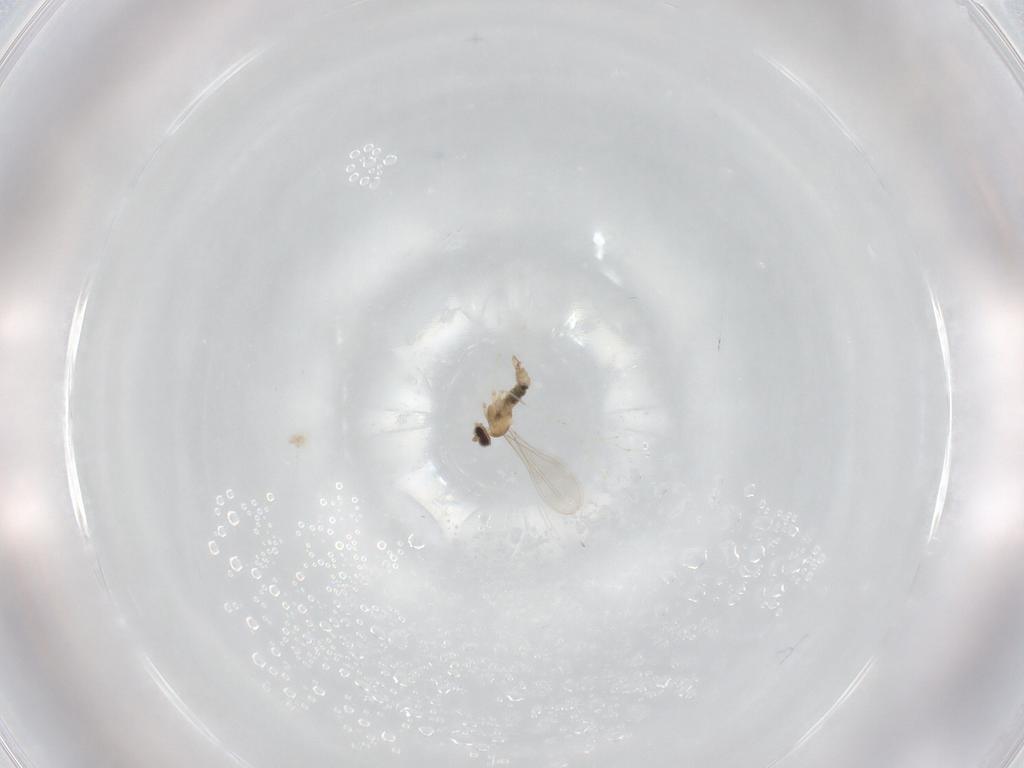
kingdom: Animalia
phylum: Arthropoda
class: Insecta
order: Diptera
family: Cecidomyiidae
